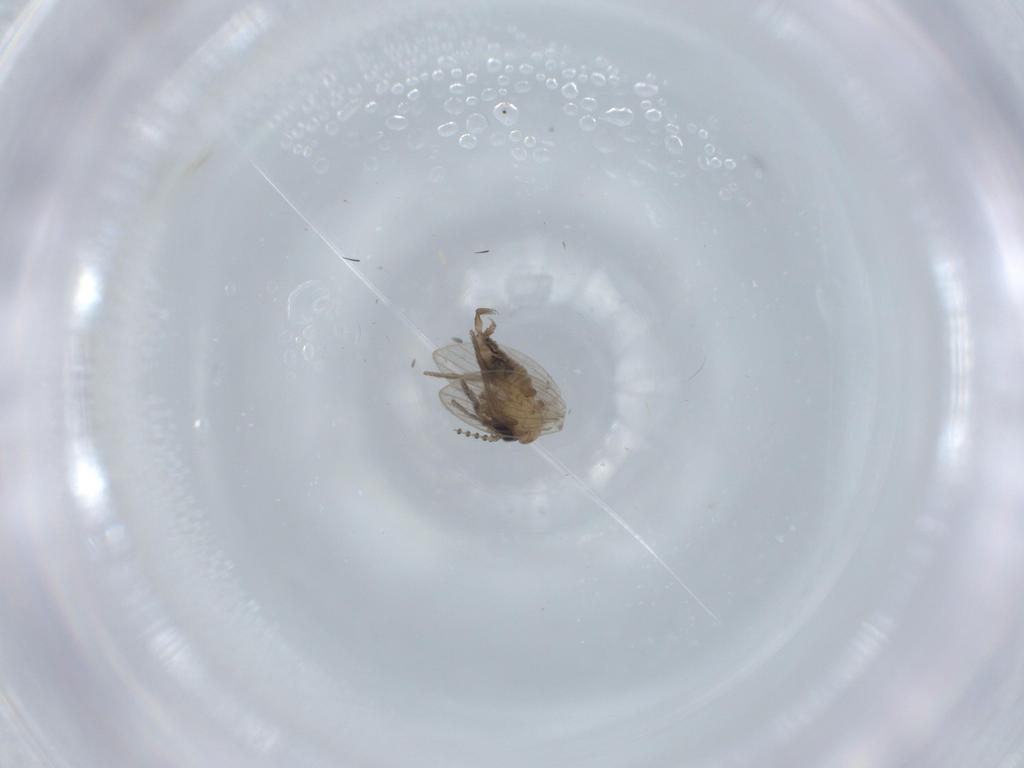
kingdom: Animalia
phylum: Arthropoda
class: Insecta
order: Diptera
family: Psychodidae
